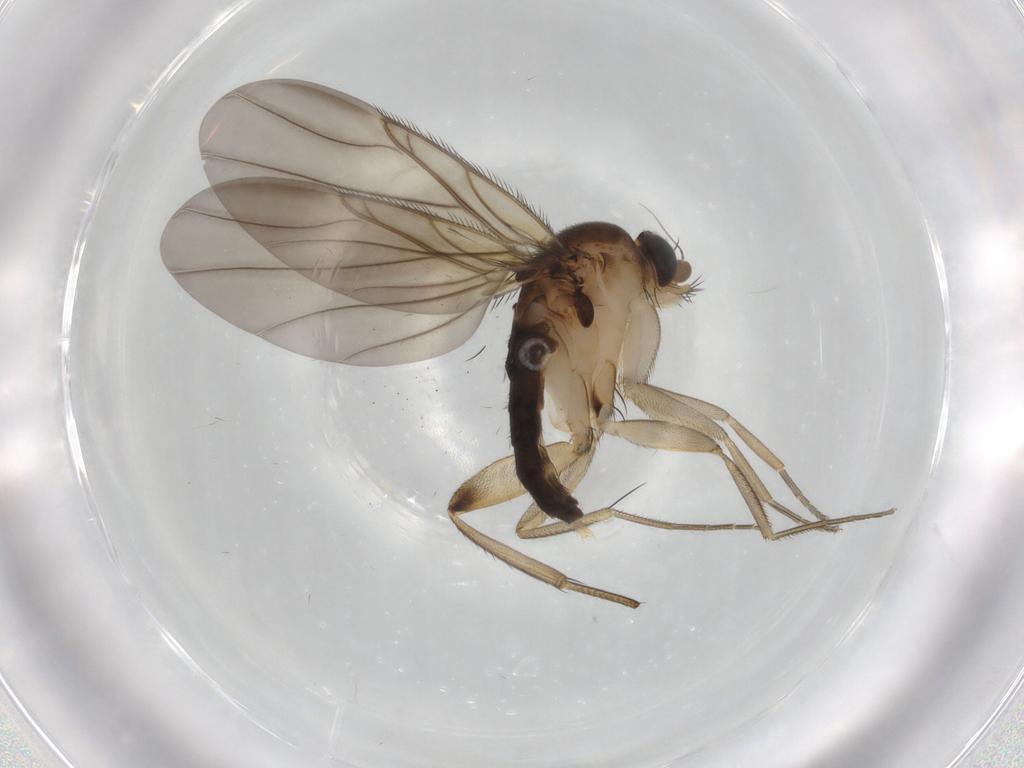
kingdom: Animalia
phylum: Arthropoda
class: Insecta
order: Diptera
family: Phoridae
